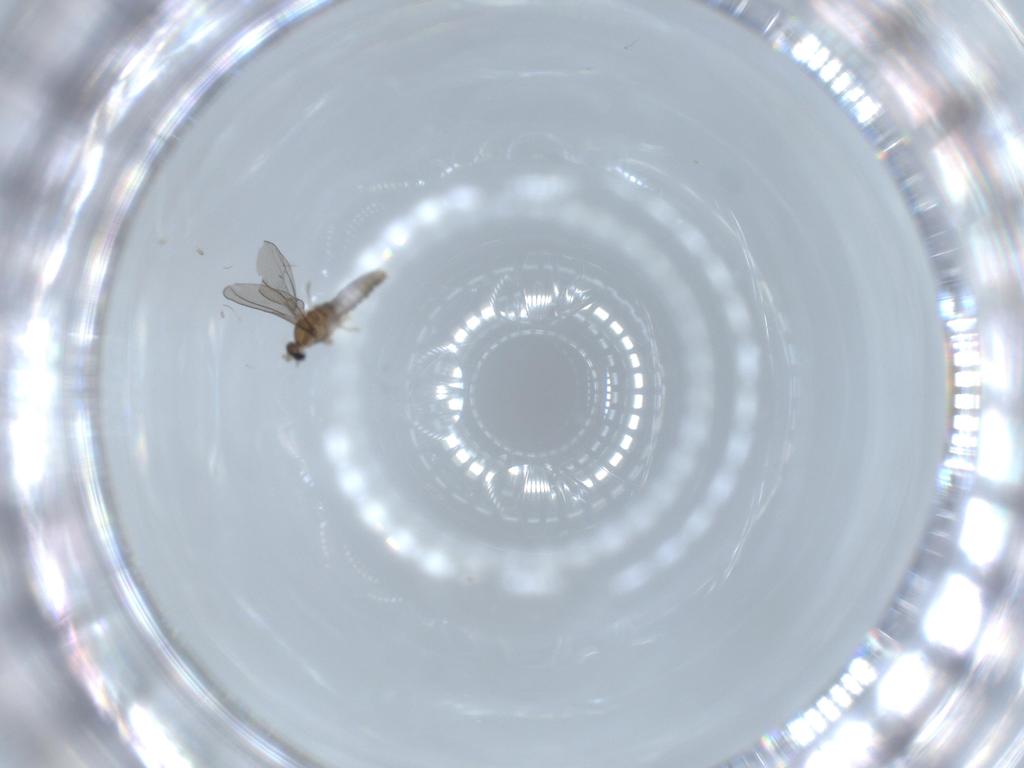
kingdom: Animalia
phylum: Arthropoda
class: Insecta
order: Diptera
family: Cecidomyiidae
